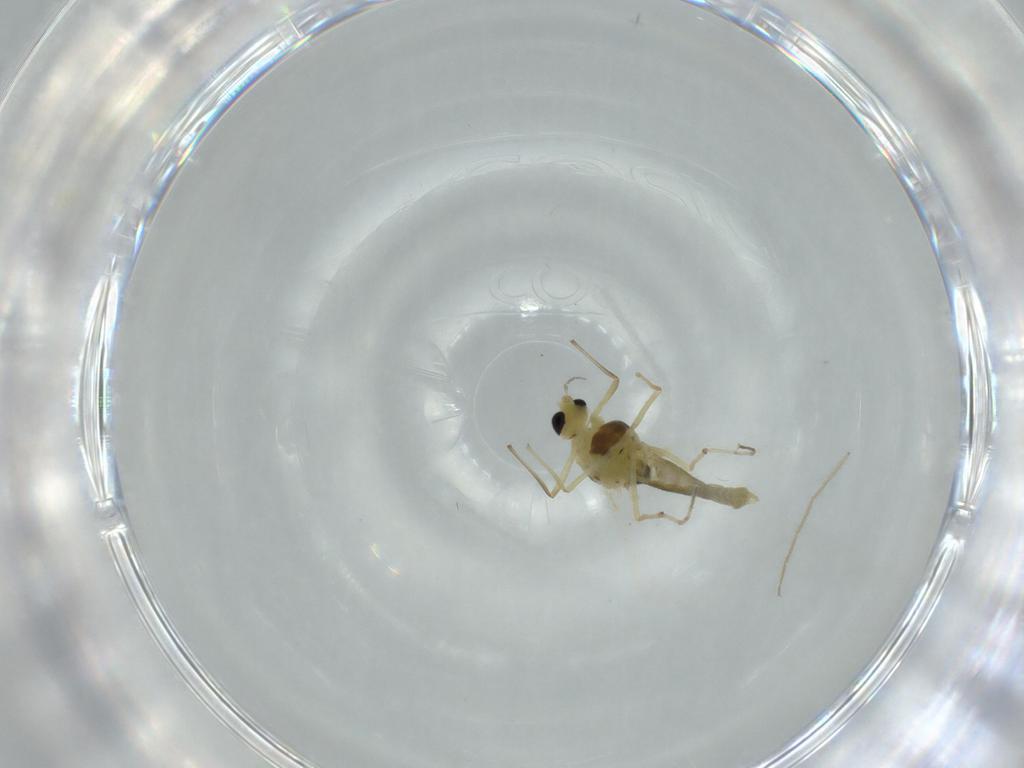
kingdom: Animalia
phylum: Arthropoda
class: Insecta
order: Diptera
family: Chironomidae
